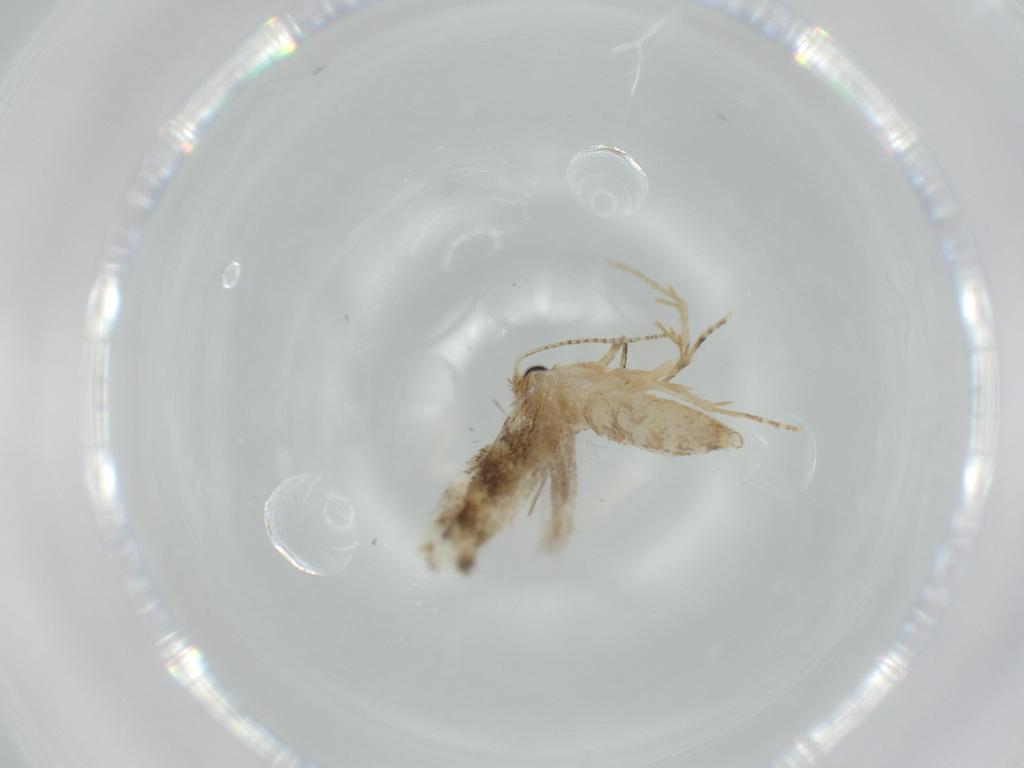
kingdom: Animalia
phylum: Arthropoda
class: Insecta
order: Lepidoptera
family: Bucculatricidae
